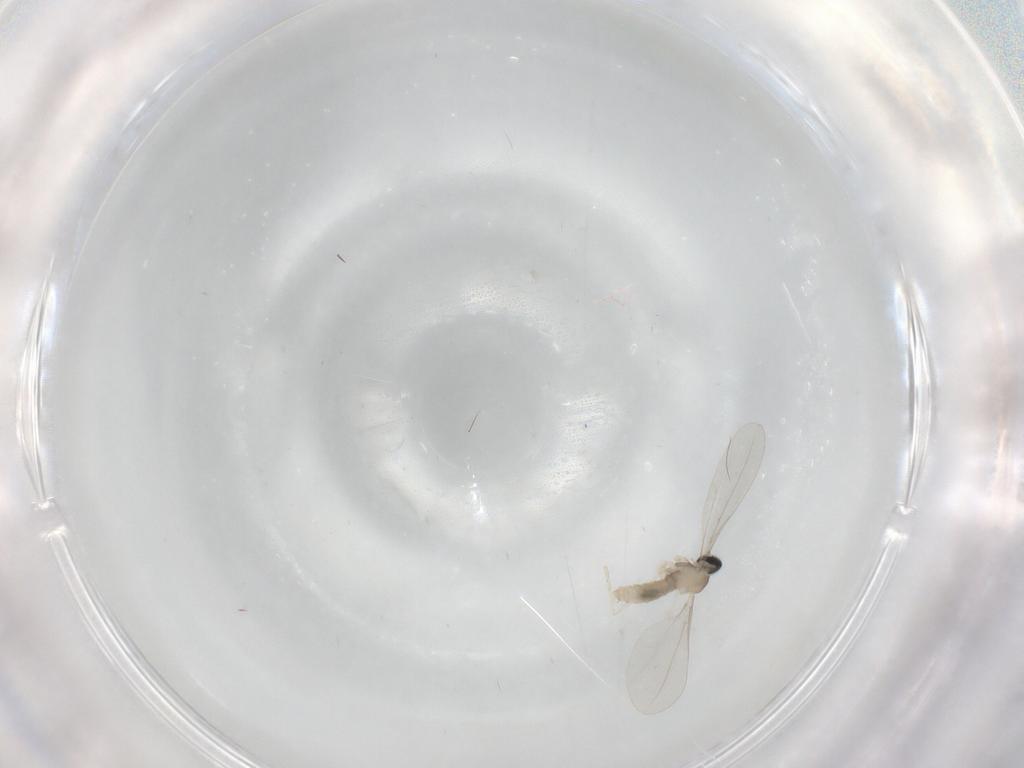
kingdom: Animalia
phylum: Arthropoda
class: Insecta
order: Diptera
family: Cecidomyiidae
